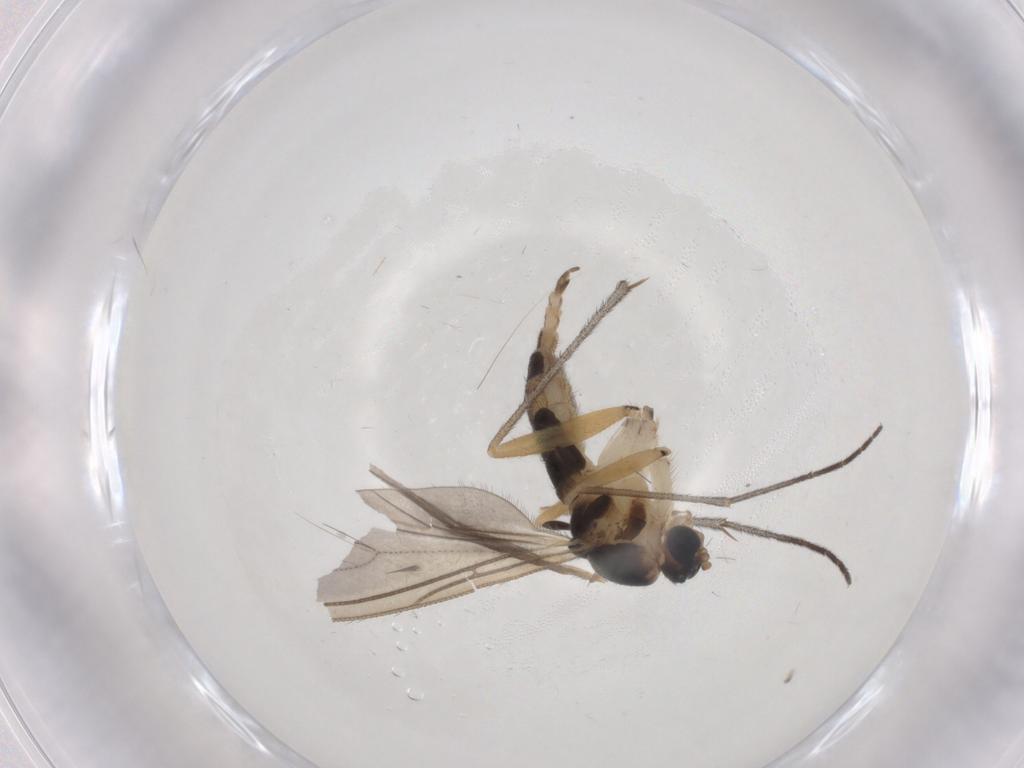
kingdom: Animalia
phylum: Arthropoda
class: Insecta
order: Diptera
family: Sciaridae
